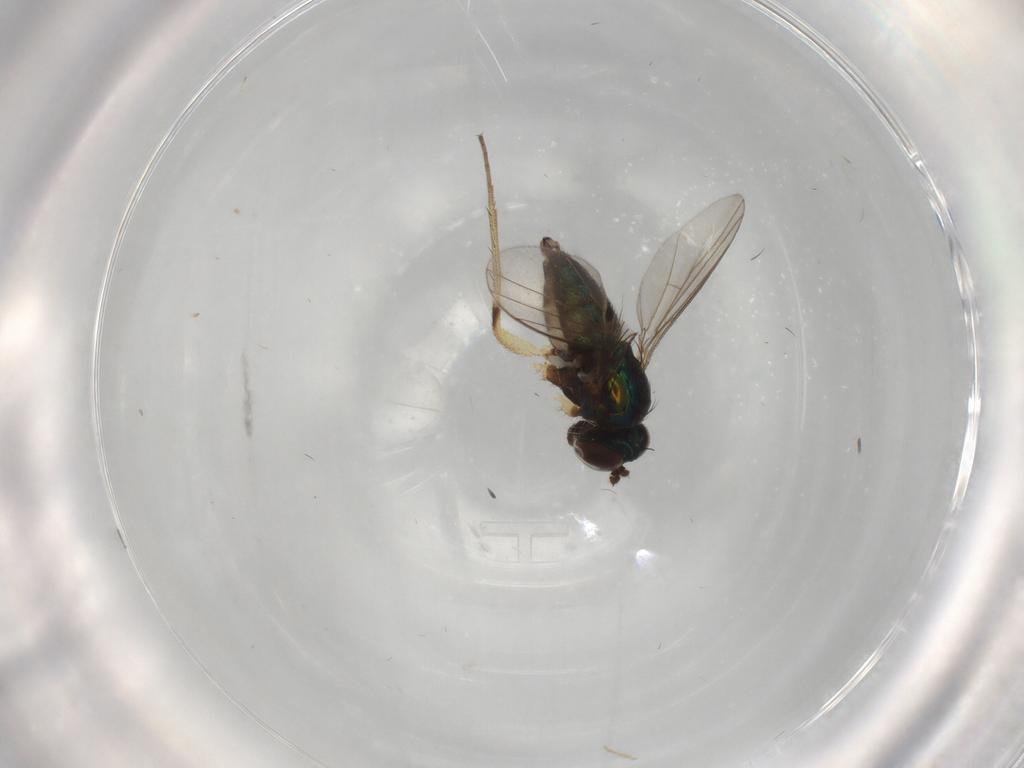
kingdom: Animalia
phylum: Arthropoda
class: Insecta
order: Diptera
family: Dolichopodidae
